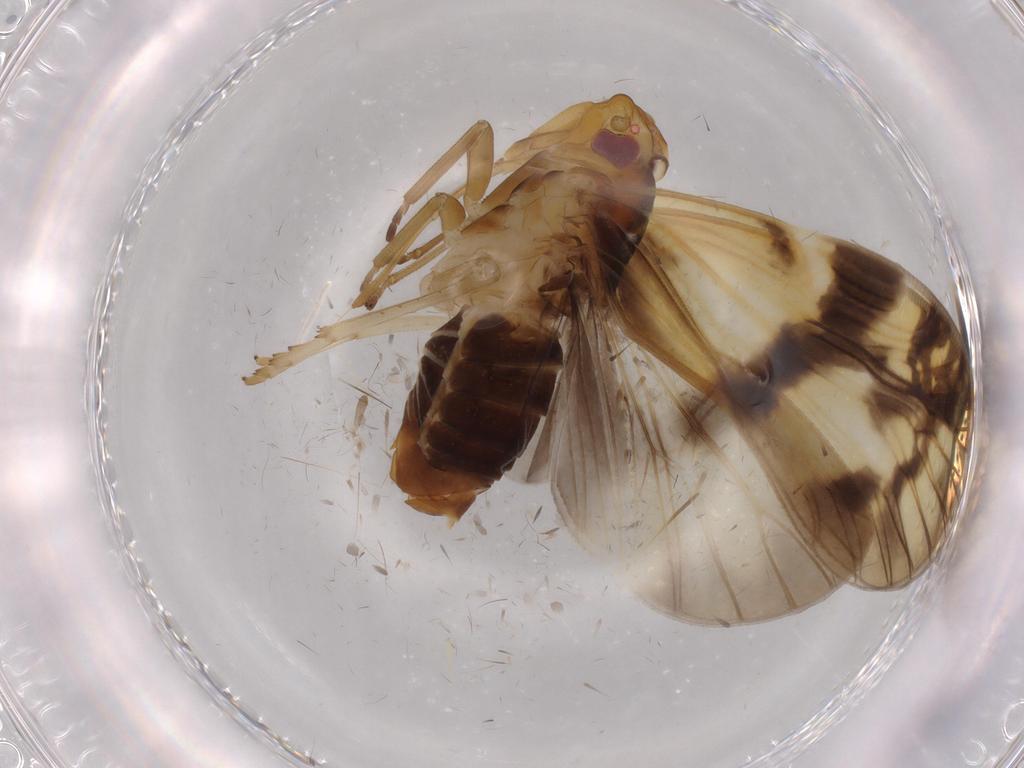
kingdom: Animalia
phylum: Arthropoda
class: Insecta
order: Hemiptera
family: Cixiidae
